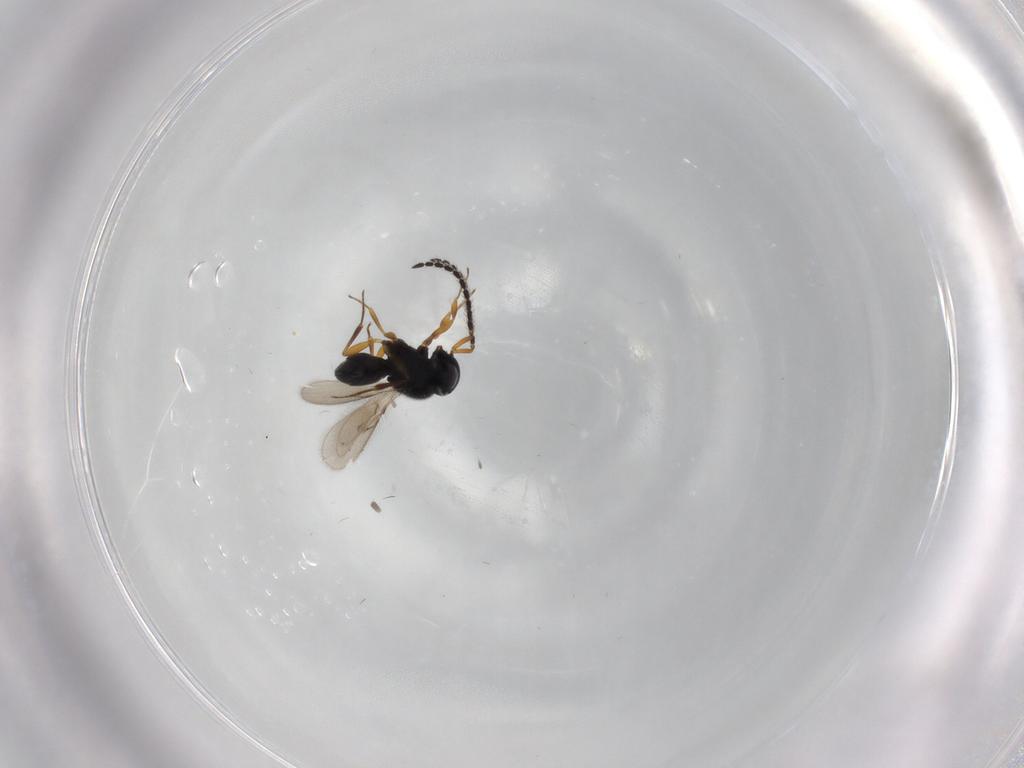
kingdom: Animalia
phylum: Arthropoda
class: Insecta
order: Hymenoptera
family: Scelionidae
